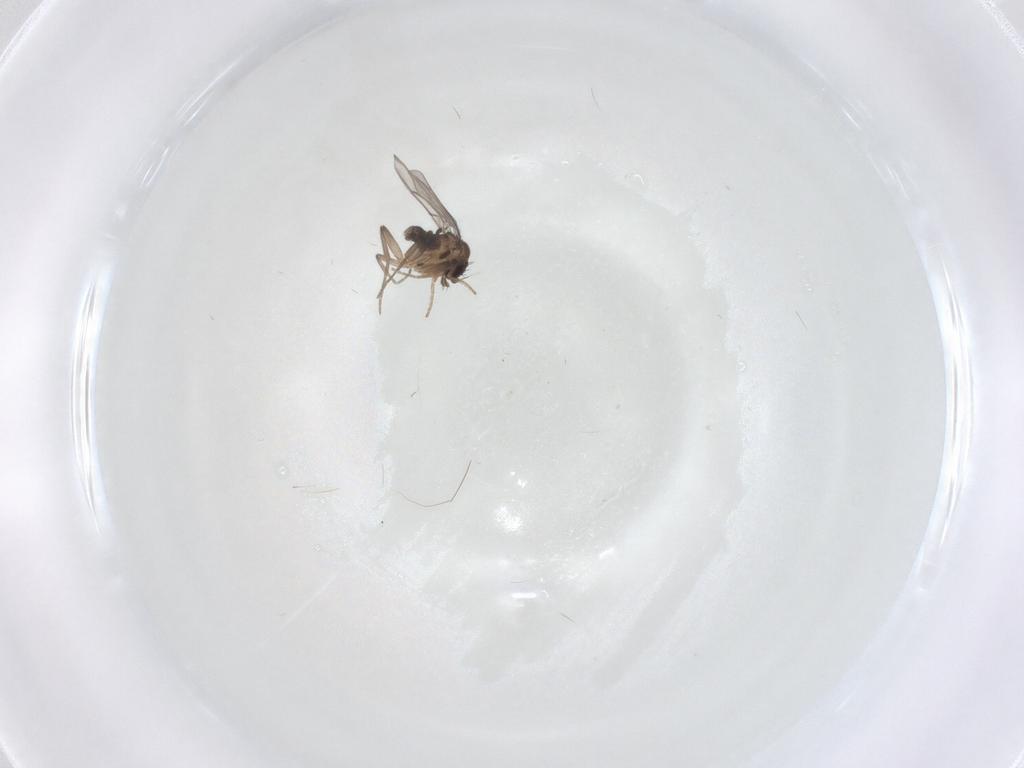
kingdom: Animalia
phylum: Arthropoda
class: Insecta
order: Diptera
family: Phoridae
